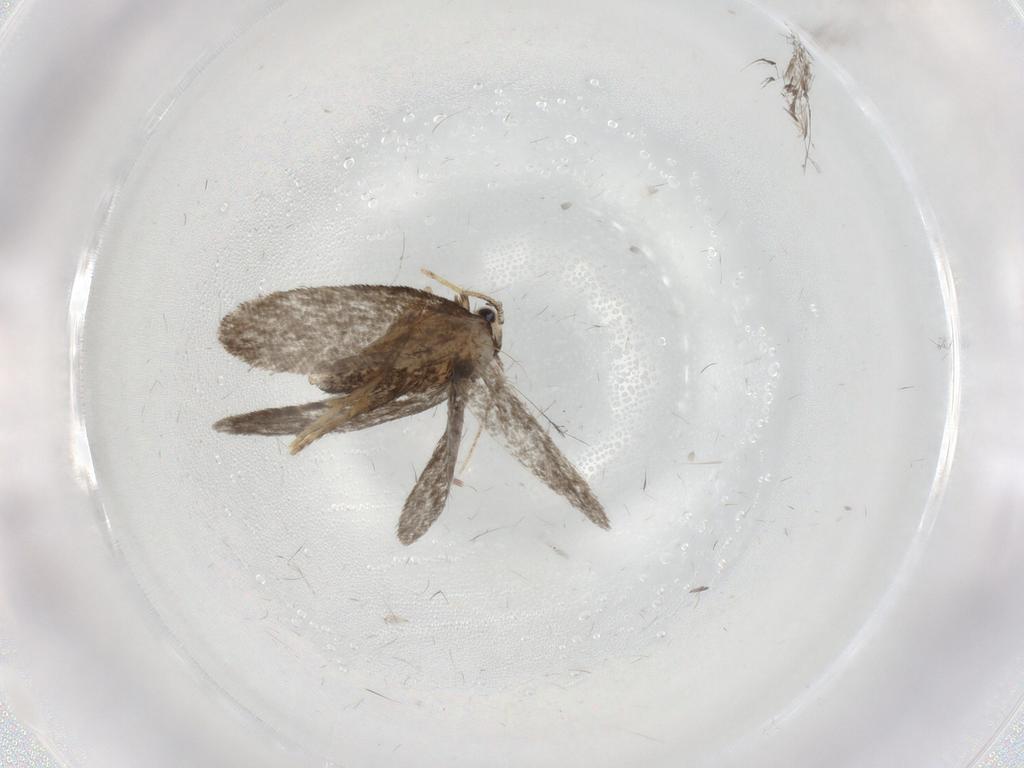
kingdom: Animalia
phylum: Arthropoda
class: Insecta
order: Lepidoptera
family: Psychidae
